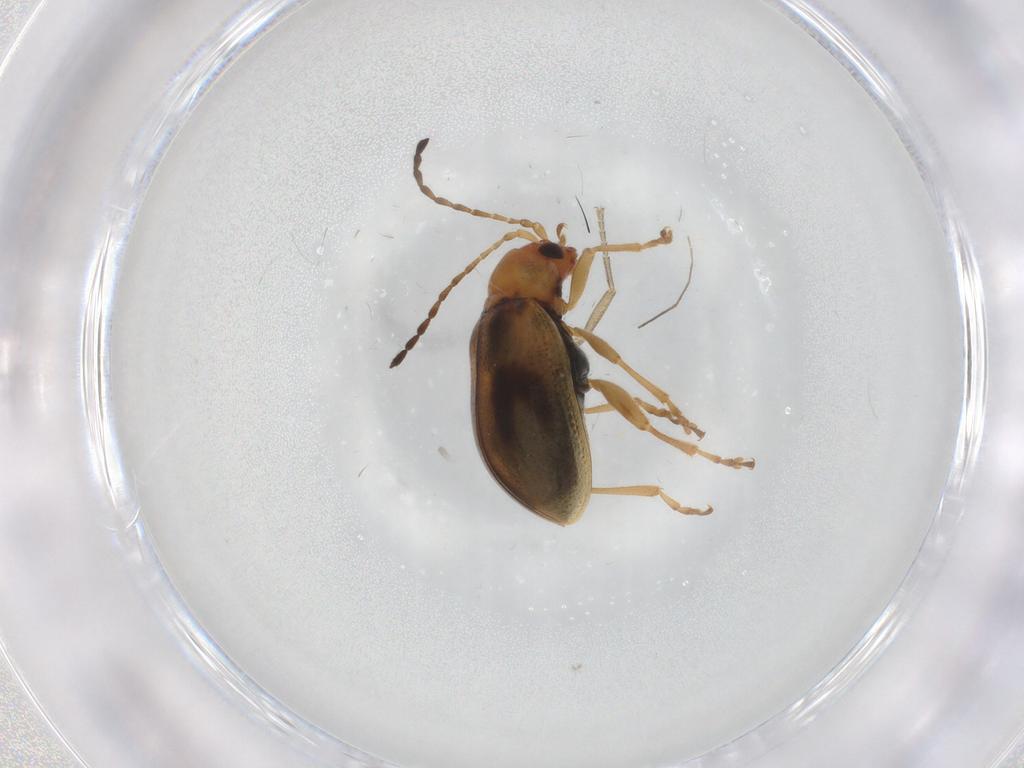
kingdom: Animalia
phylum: Arthropoda
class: Insecta
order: Coleoptera
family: Chrysomelidae
